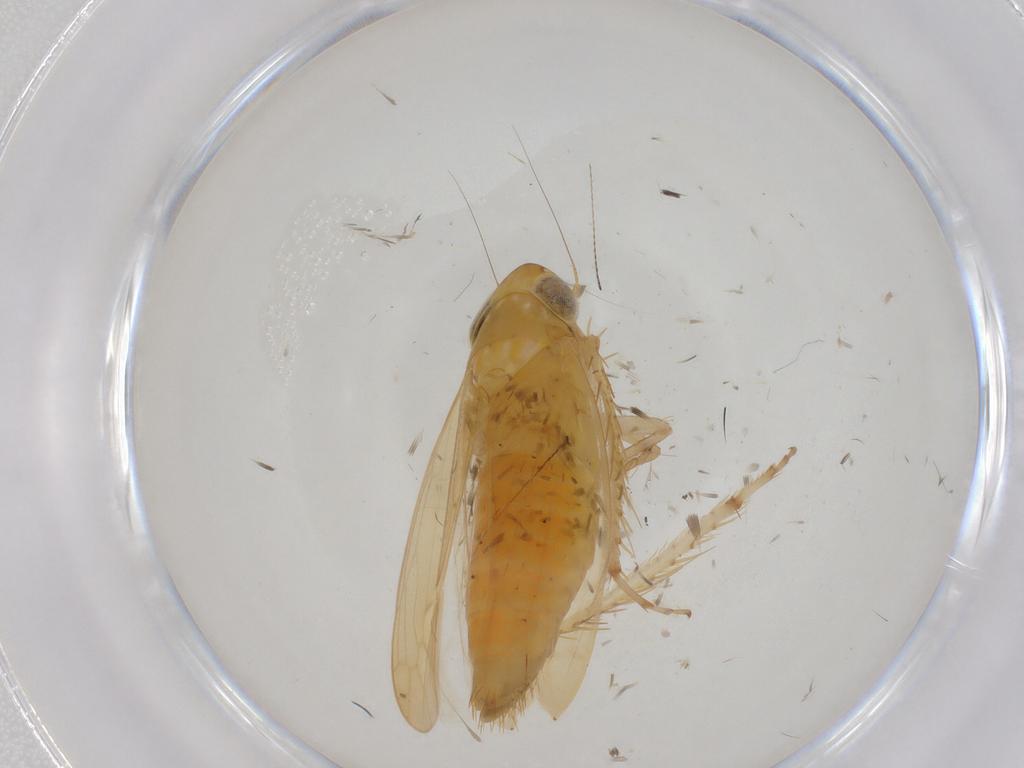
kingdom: Animalia
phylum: Arthropoda
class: Insecta
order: Hemiptera
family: Cicadellidae
